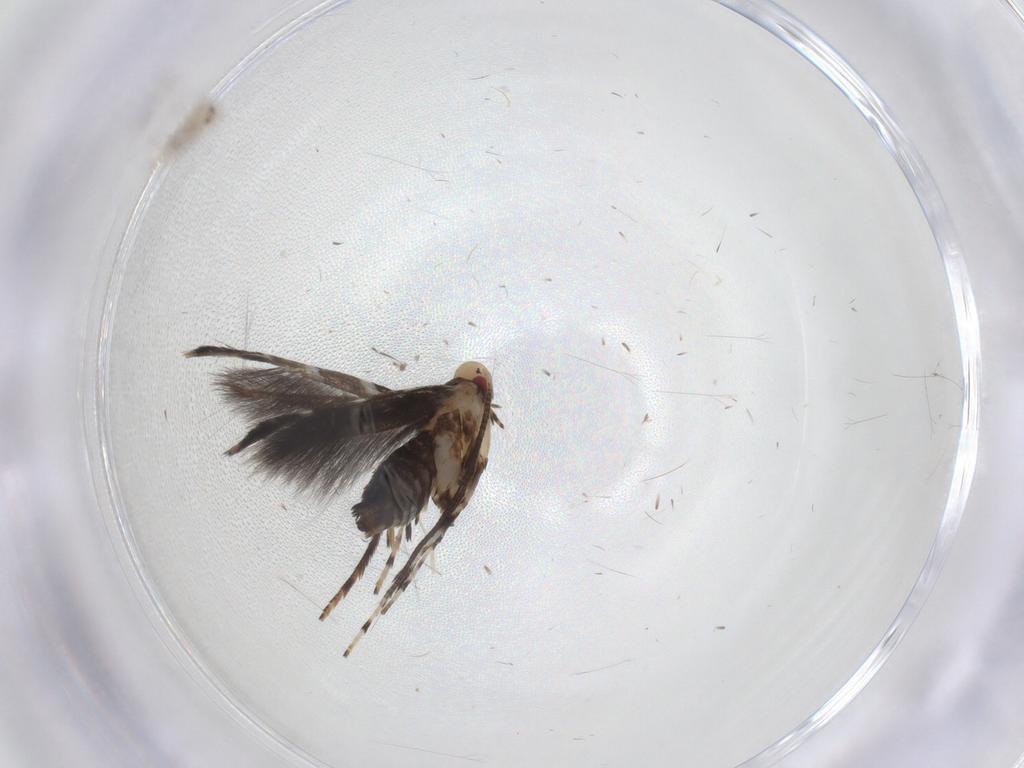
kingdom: Animalia
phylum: Arthropoda
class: Insecta
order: Lepidoptera
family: Gracillariidae
